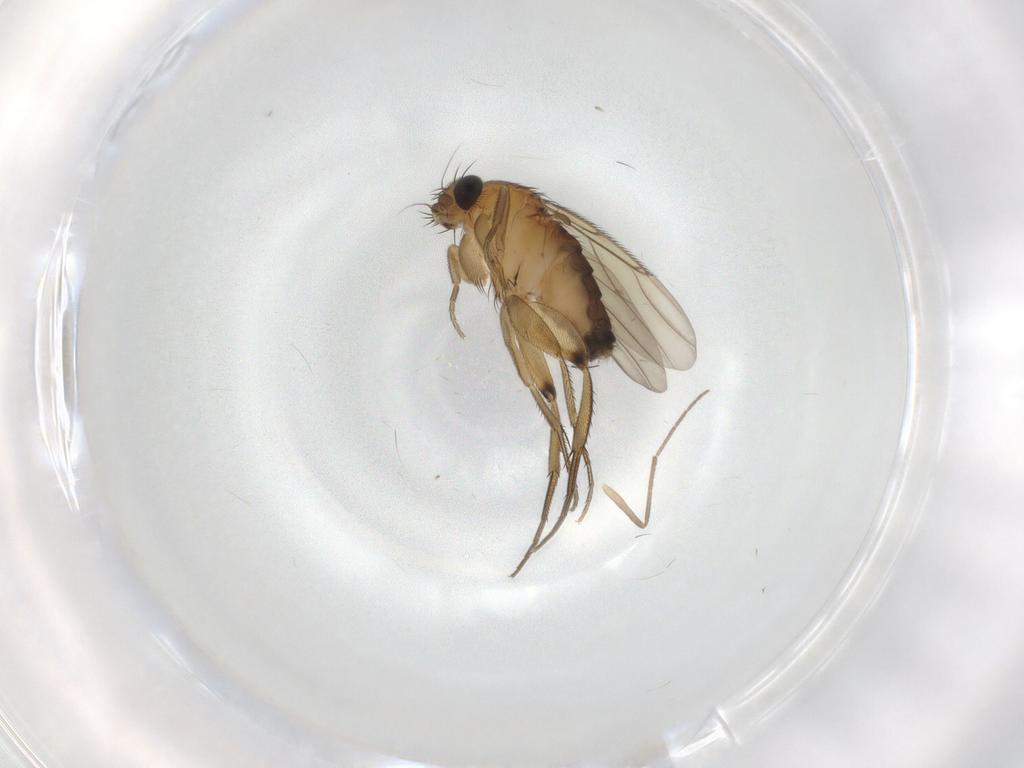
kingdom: Animalia
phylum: Arthropoda
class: Insecta
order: Diptera
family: Phoridae
